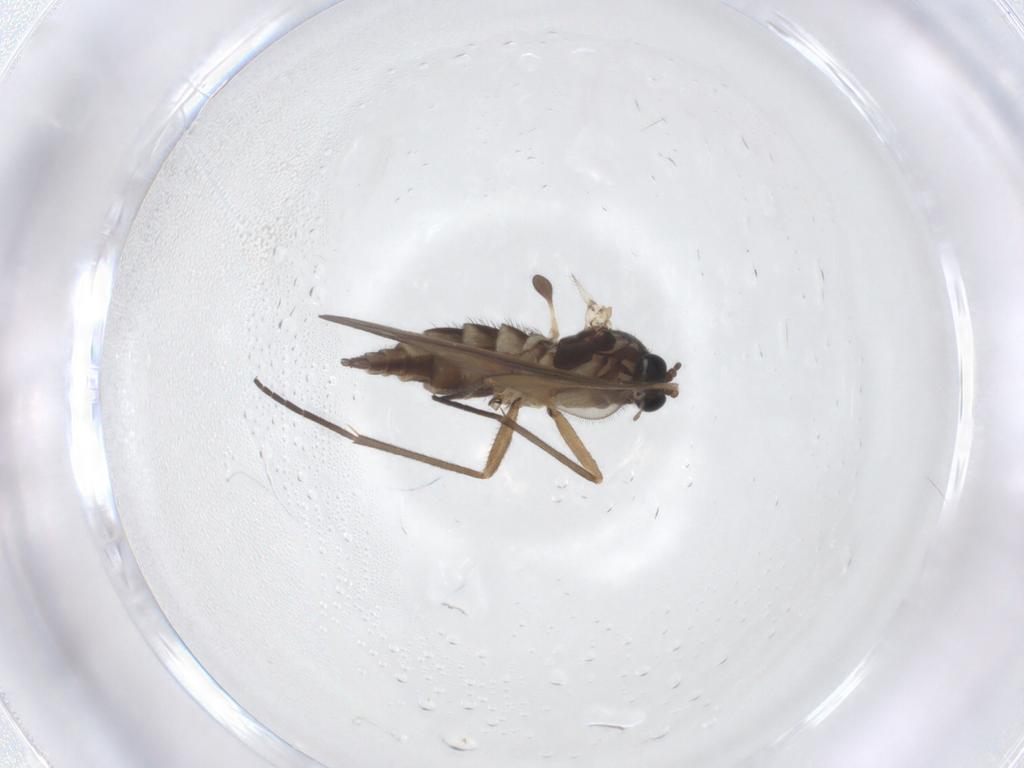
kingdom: Animalia
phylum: Arthropoda
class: Insecta
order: Diptera
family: Sciaridae
